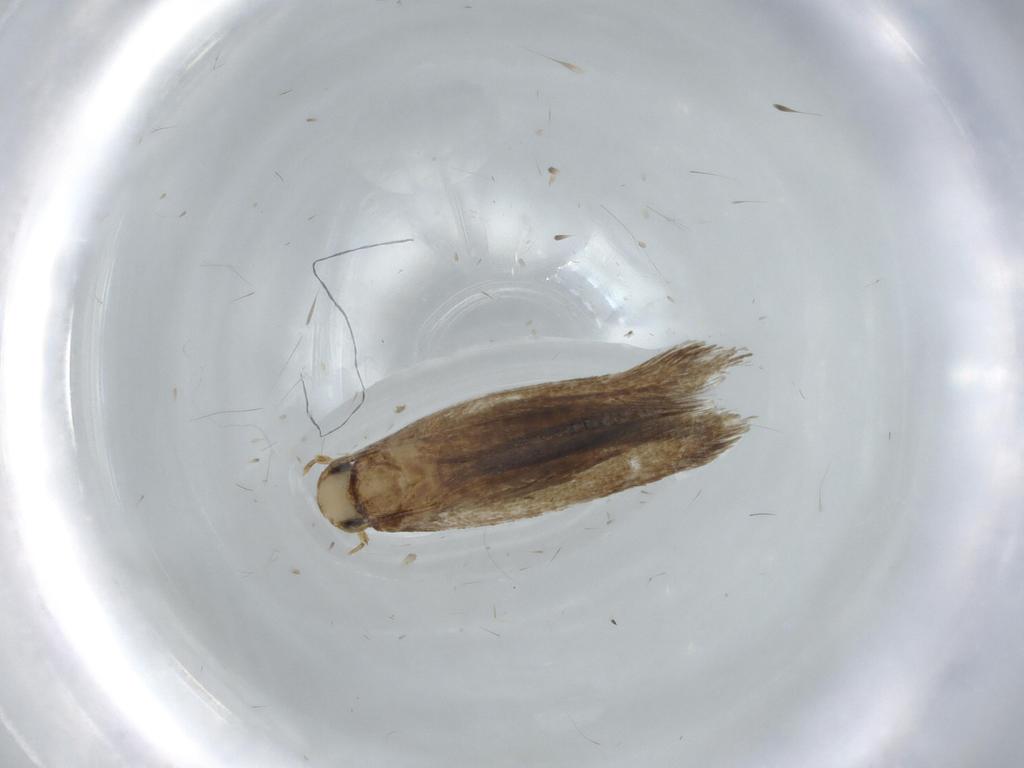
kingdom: Animalia
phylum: Arthropoda
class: Insecta
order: Lepidoptera
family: Tineidae
